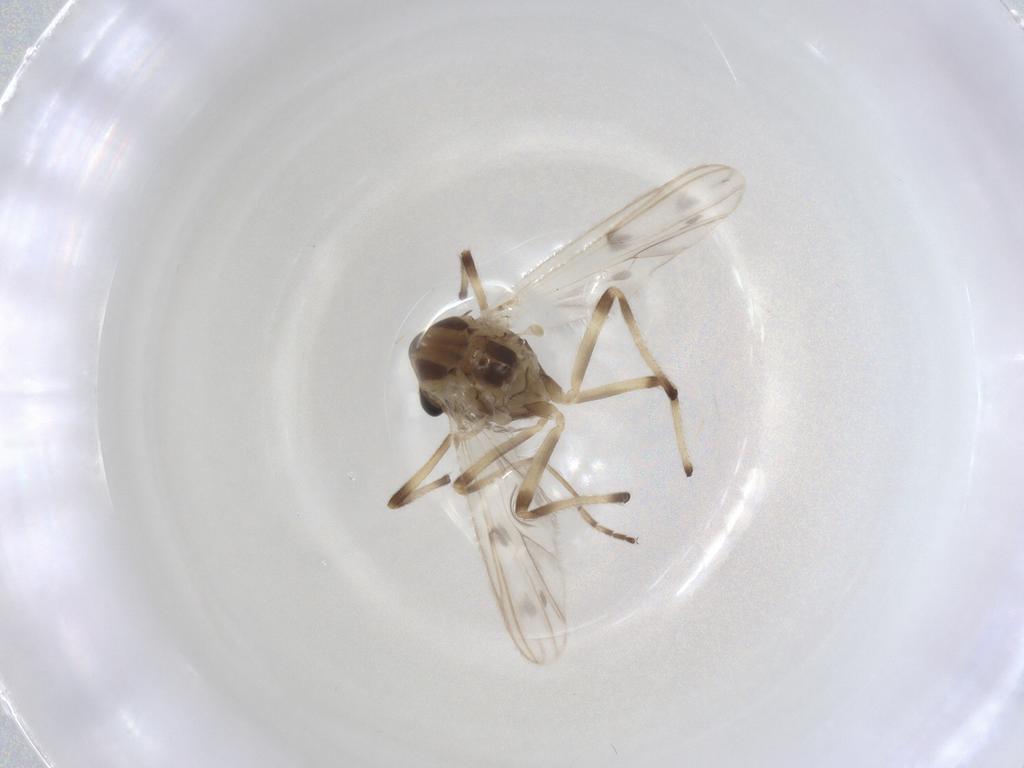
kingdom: Animalia
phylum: Arthropoda
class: Insecta
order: Diptera
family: Chironomidae
